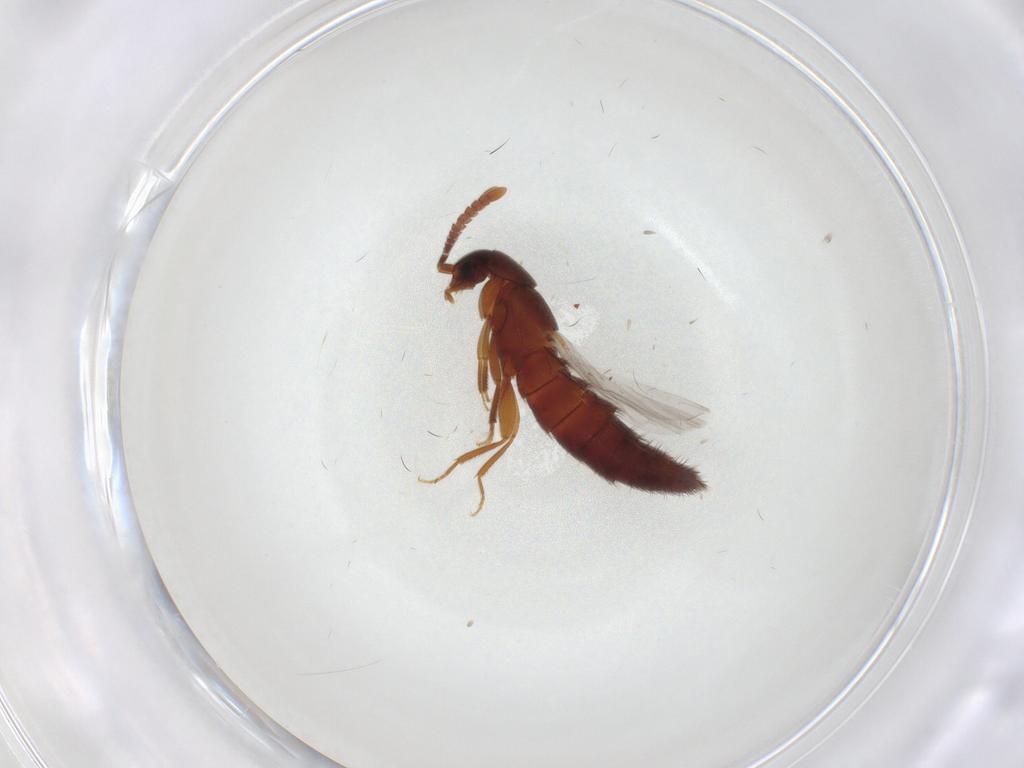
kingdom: Animalia
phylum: Arthropoda
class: Insecta
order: Coleoptera
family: Staphylinidae
